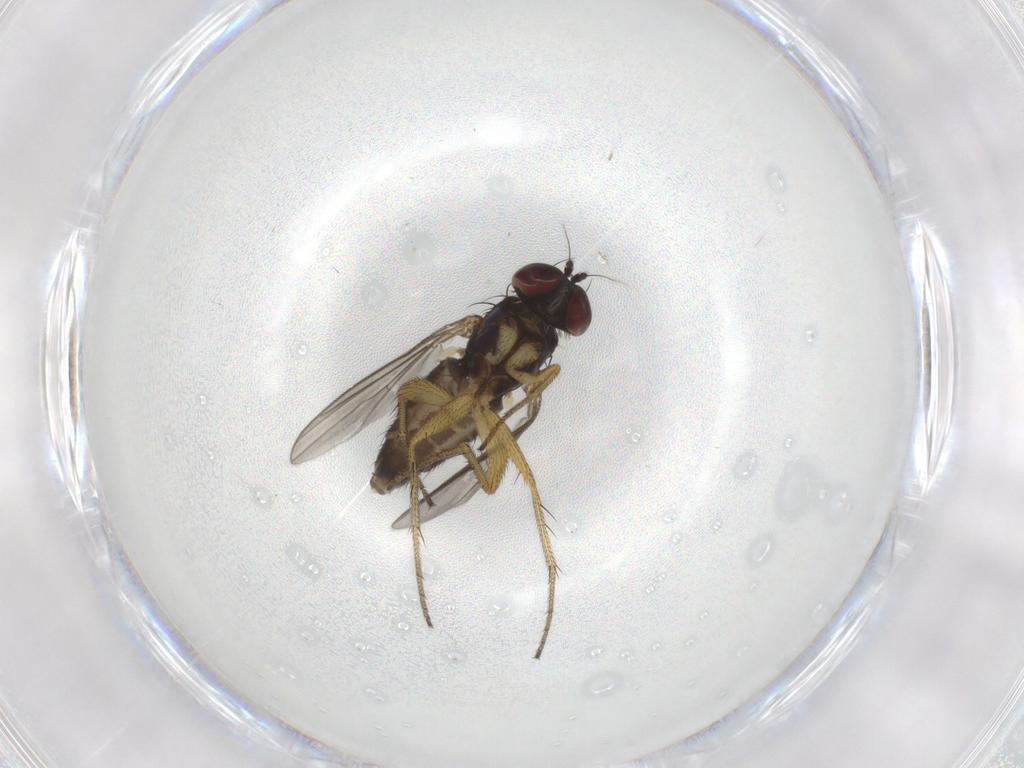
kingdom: Animalia
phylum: Arthropoda
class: Insecta
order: Diptera
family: Dolichopodidae
